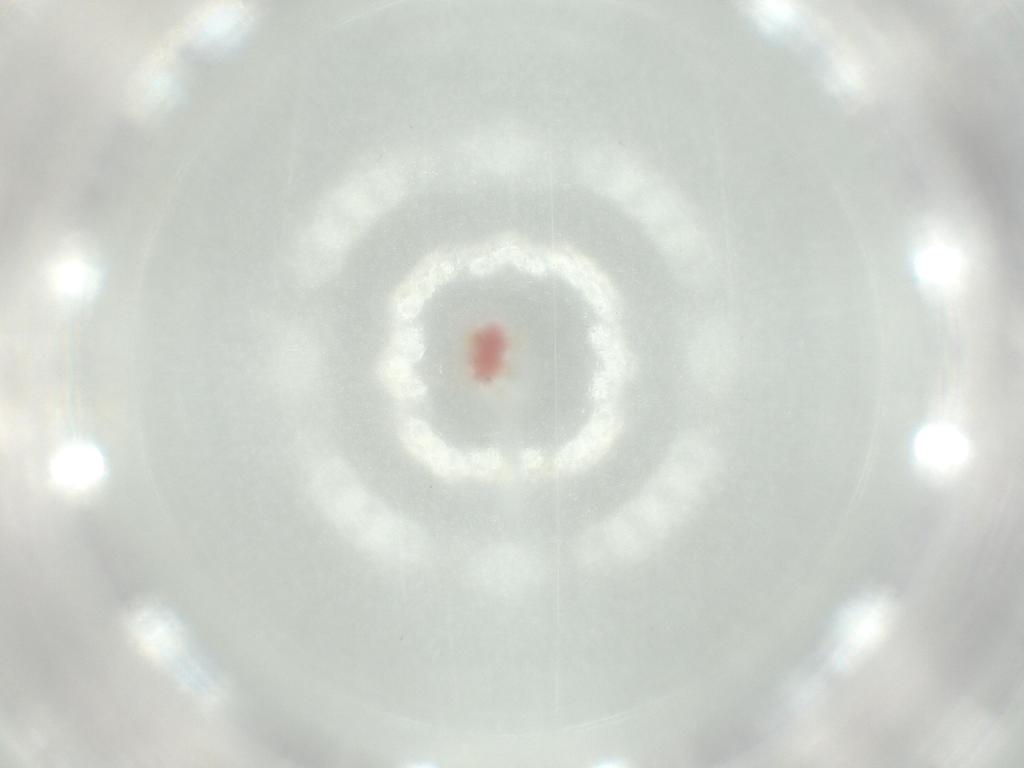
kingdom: Animalia
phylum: Arthropoda
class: Insecta
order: Hemiptera
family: Pseudococcidae
